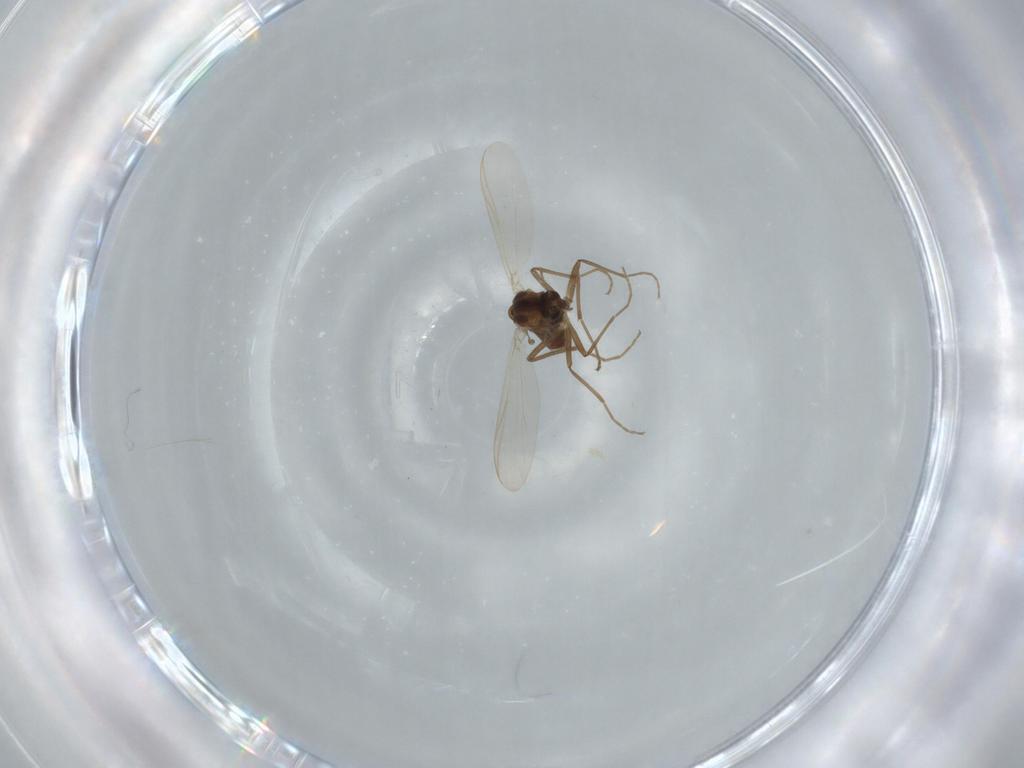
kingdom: Animalia
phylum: Arthropoda
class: Insecta
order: Diptera
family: Chironomidae
